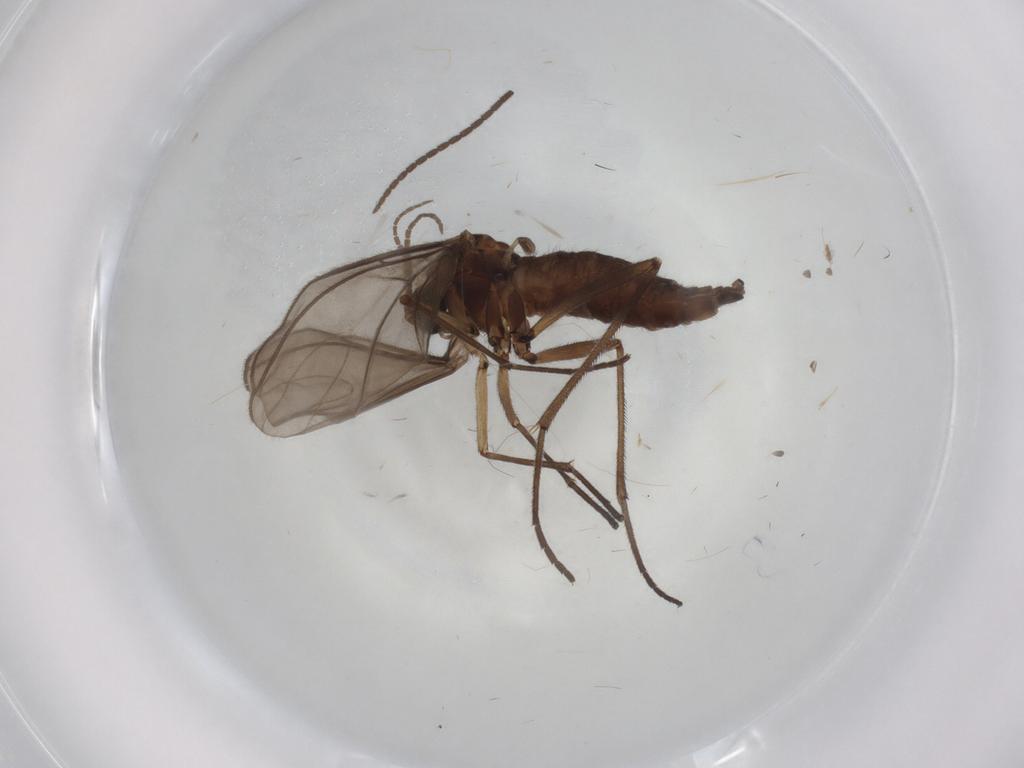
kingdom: Animalia
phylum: Arthropoda
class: Insecta
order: Diptera
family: Sciaridae
